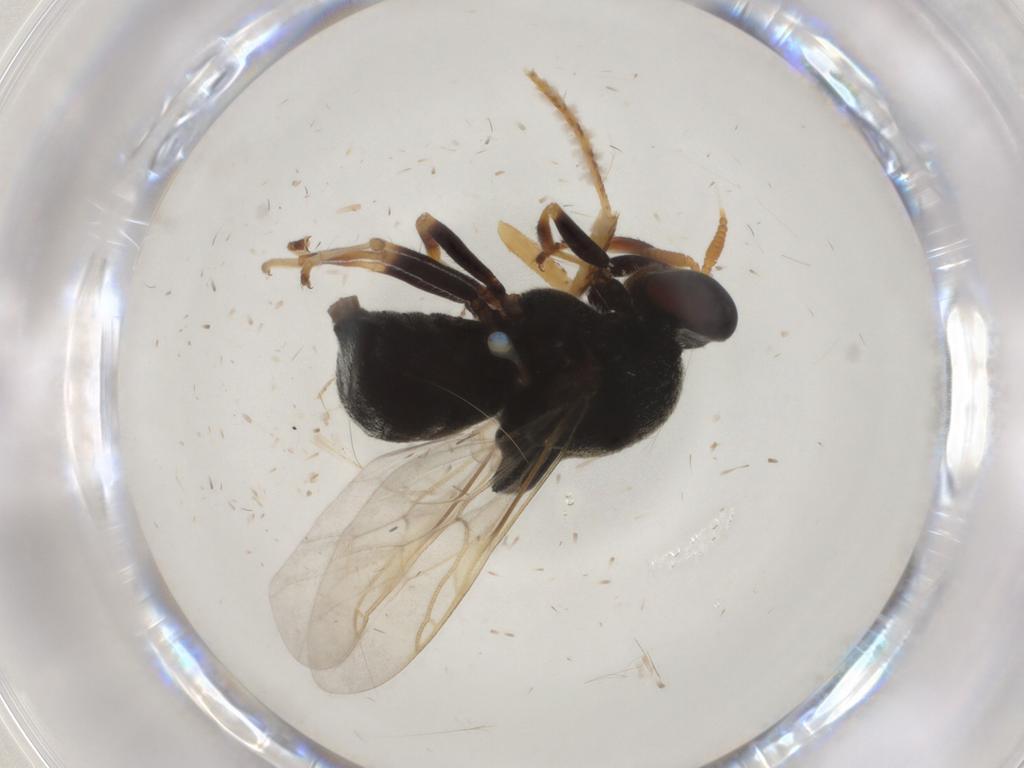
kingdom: Animalia
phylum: Arthropoda
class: Insecta
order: Diptera
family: Stratiomyidae
